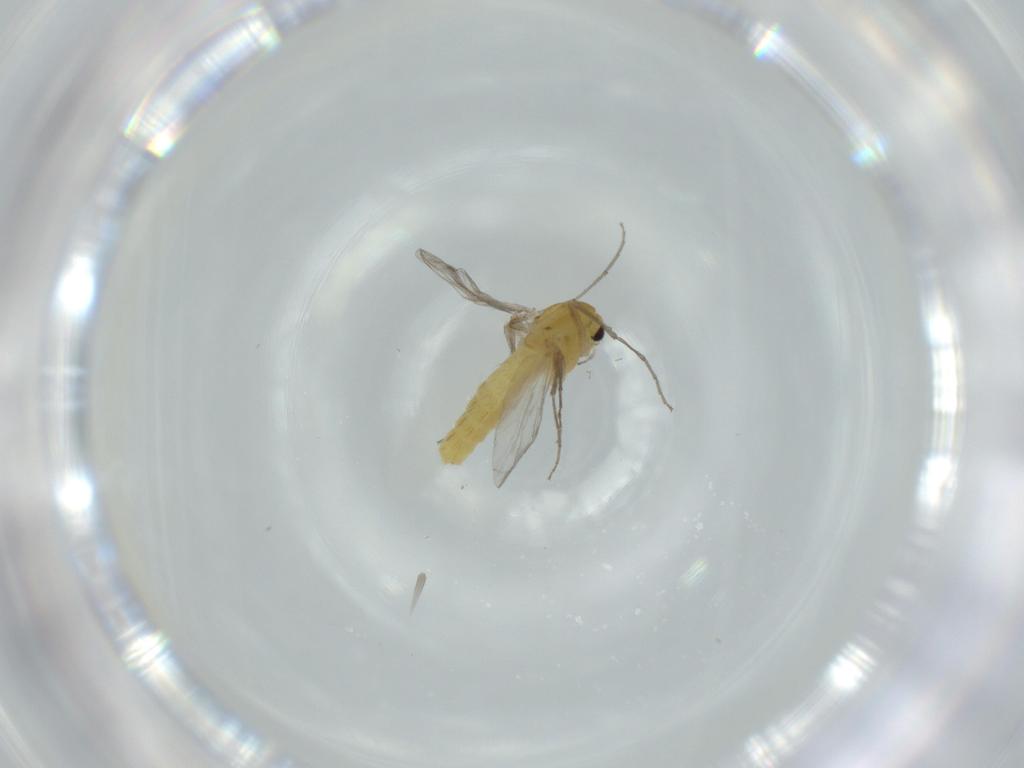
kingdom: Animalia
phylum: Arthropoda
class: Insecta
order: Diptera
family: Chironomidae
